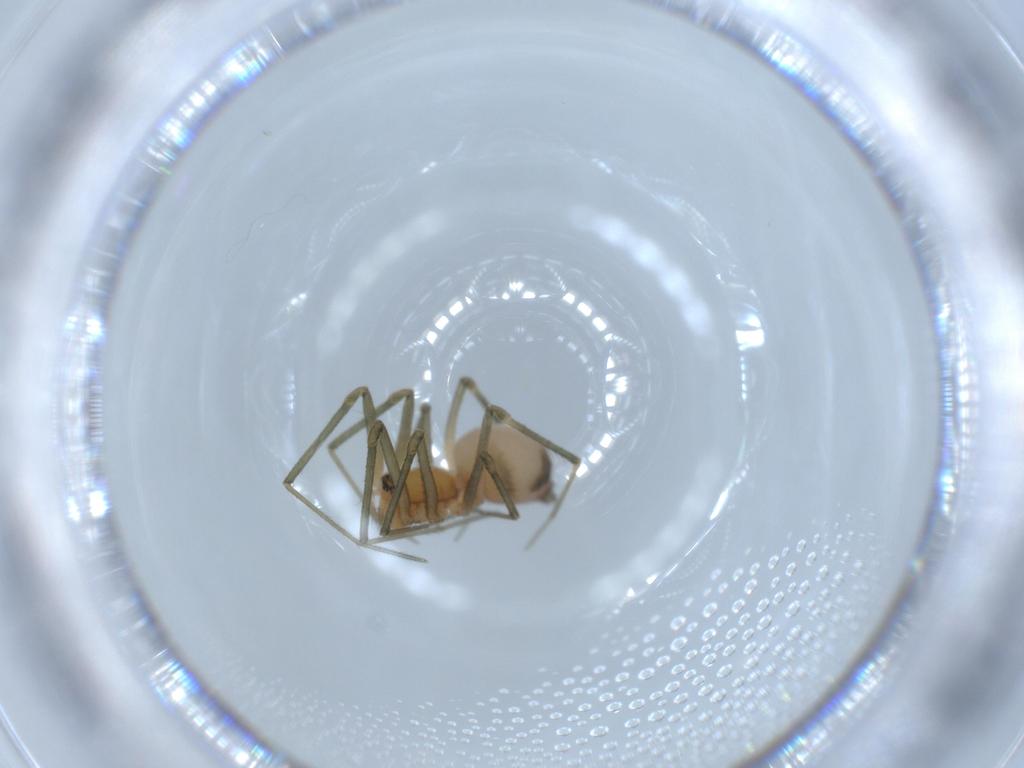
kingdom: Animalia
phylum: Arthropoda
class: Arachnida
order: Araneae
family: Linyphiidae
